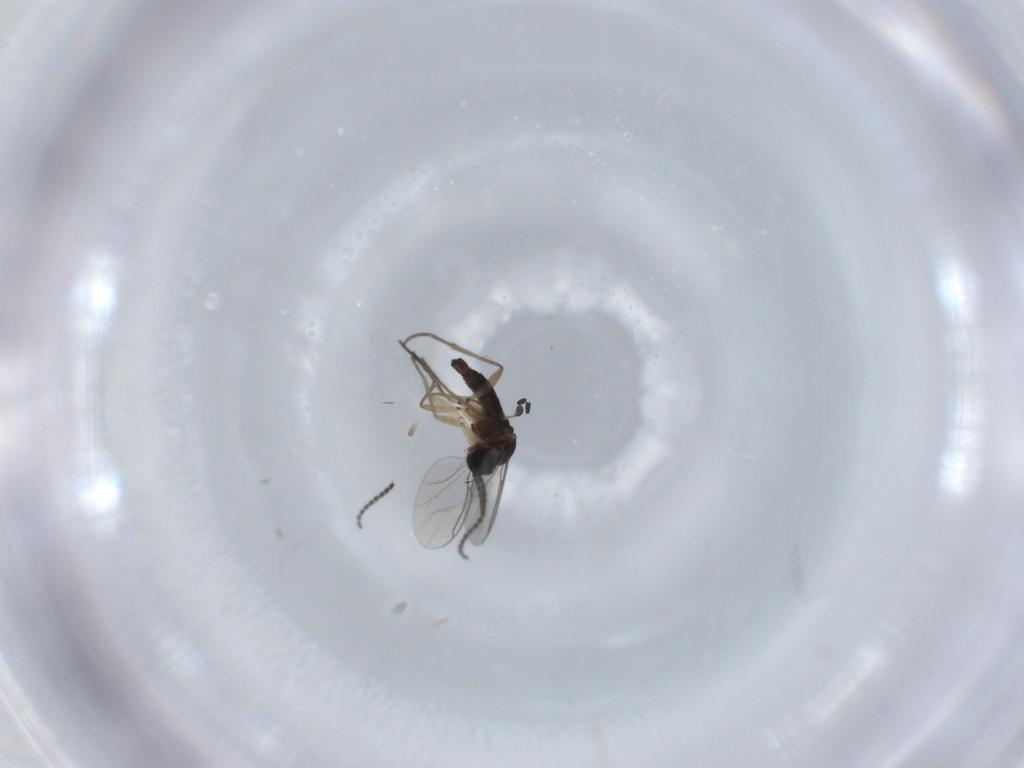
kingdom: Animalia
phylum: Arthropoda
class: Insecta
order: Diptera
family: Sciaridae
